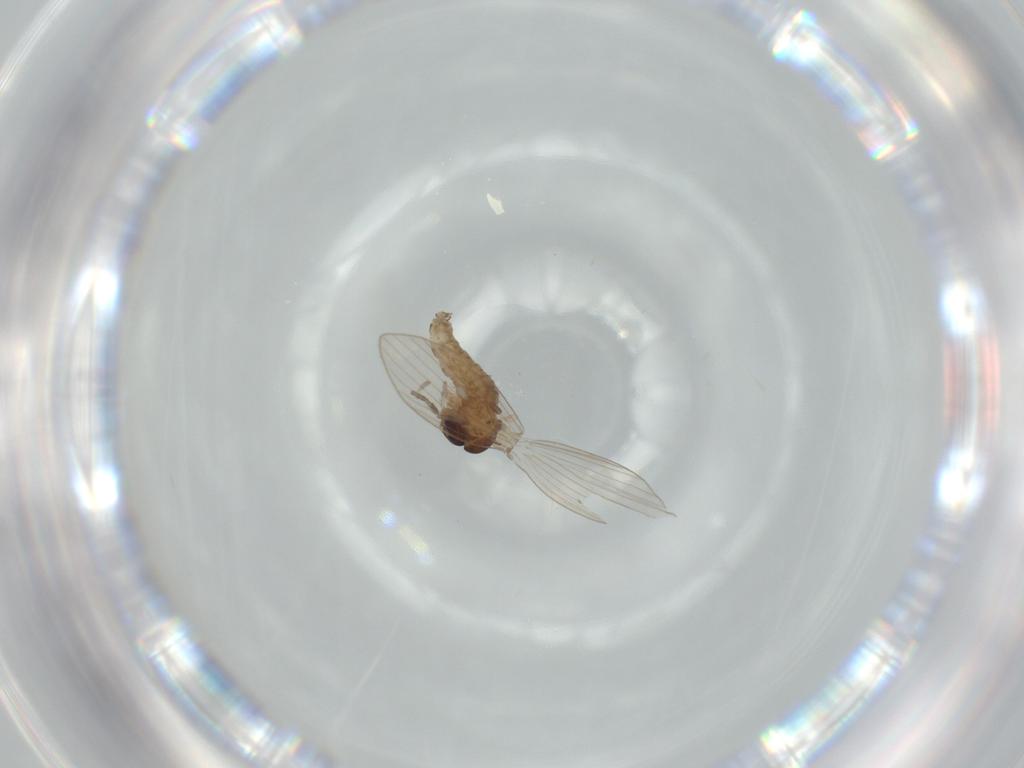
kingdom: Animalia
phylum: Arthropoda
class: Insecta
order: Diptera
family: Psychodidae
